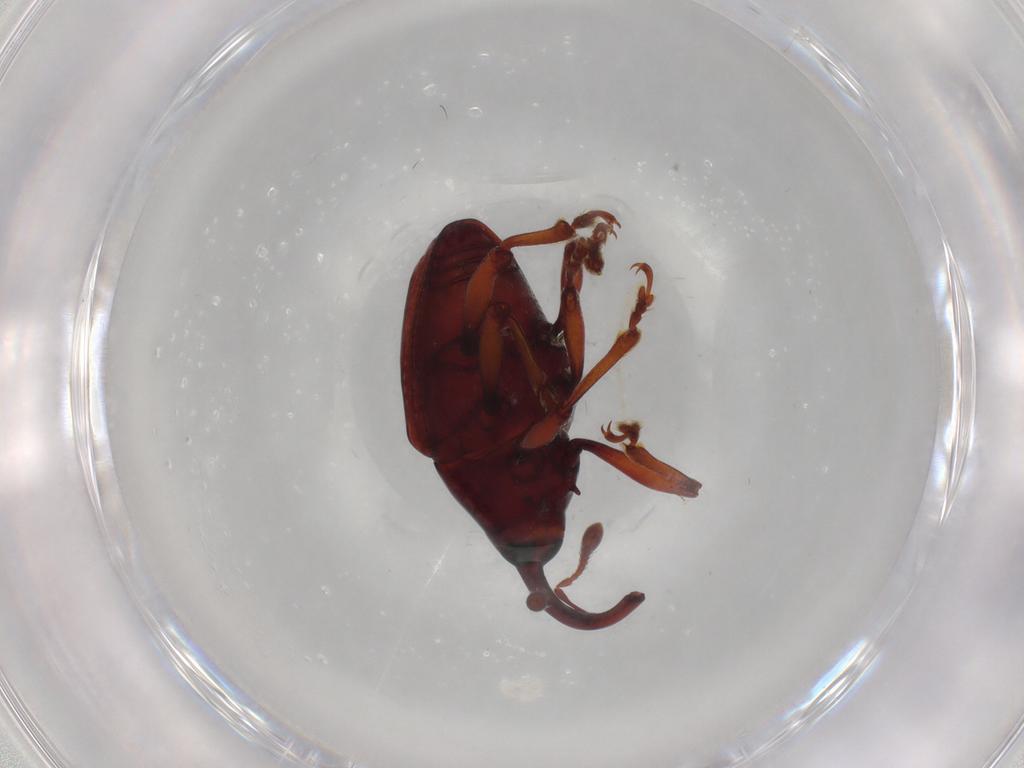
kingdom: Animalia
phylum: Arthropoda
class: Insecta
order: Coleoptera
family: Curculionidae
